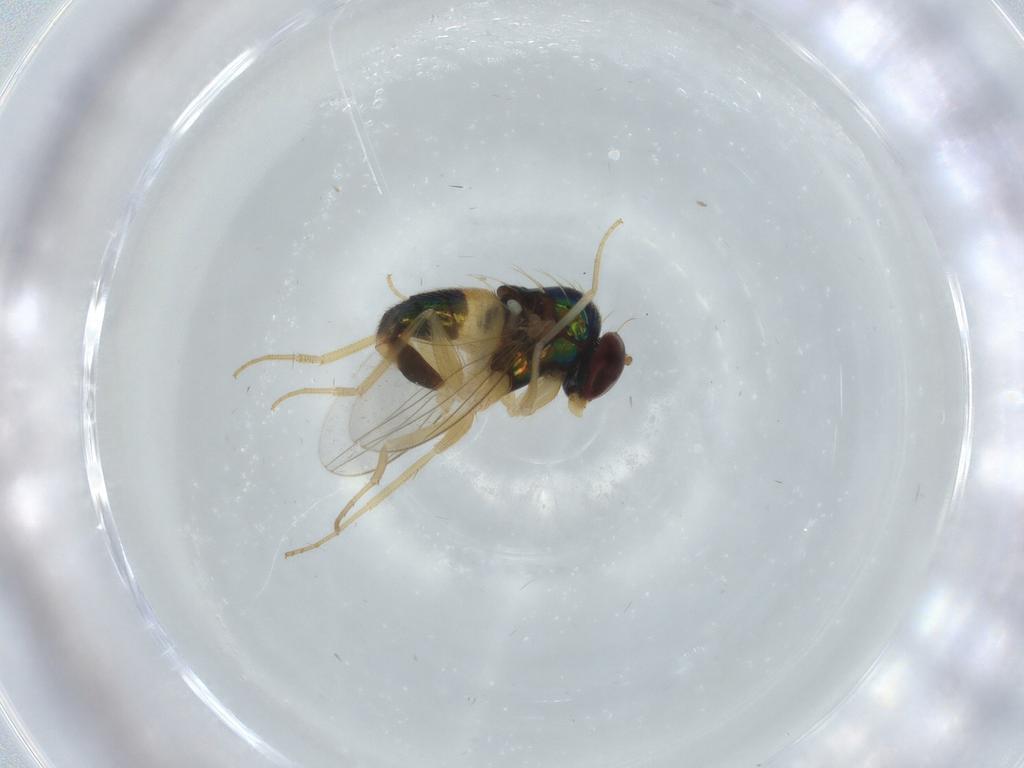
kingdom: Animalia
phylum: Arthropoda
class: Insecta
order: Diptera
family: Dolichopodidae
